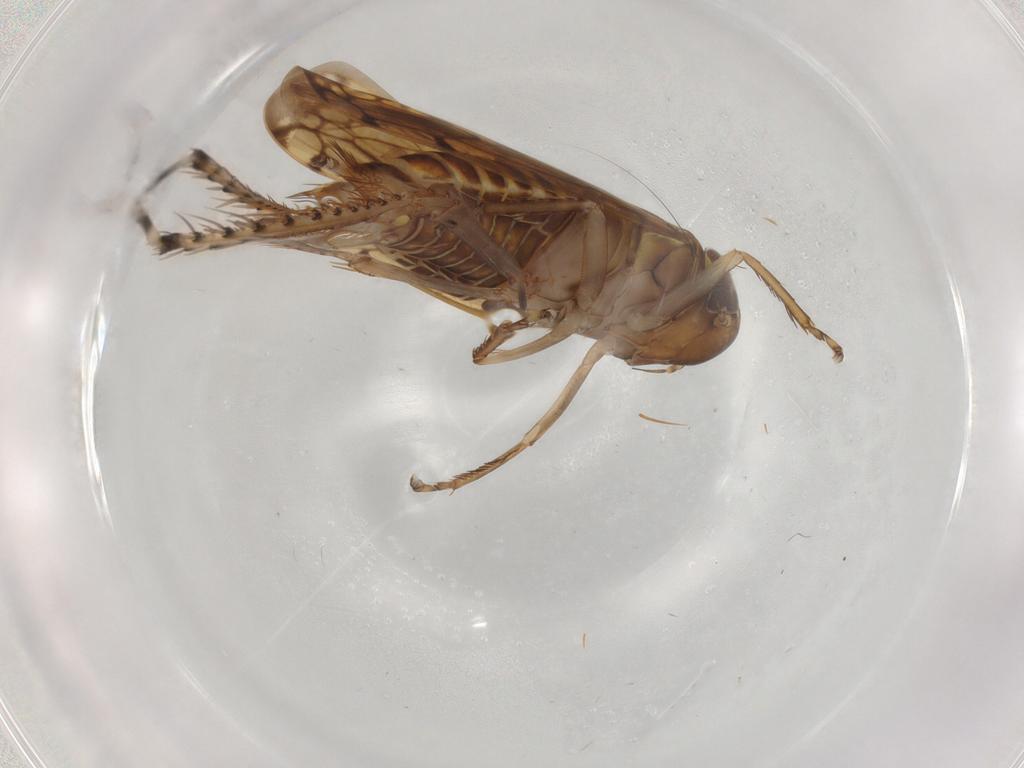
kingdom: Animalia
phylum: Arthropoda
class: Insecta
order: Hemiptera
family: Cicadellidae
